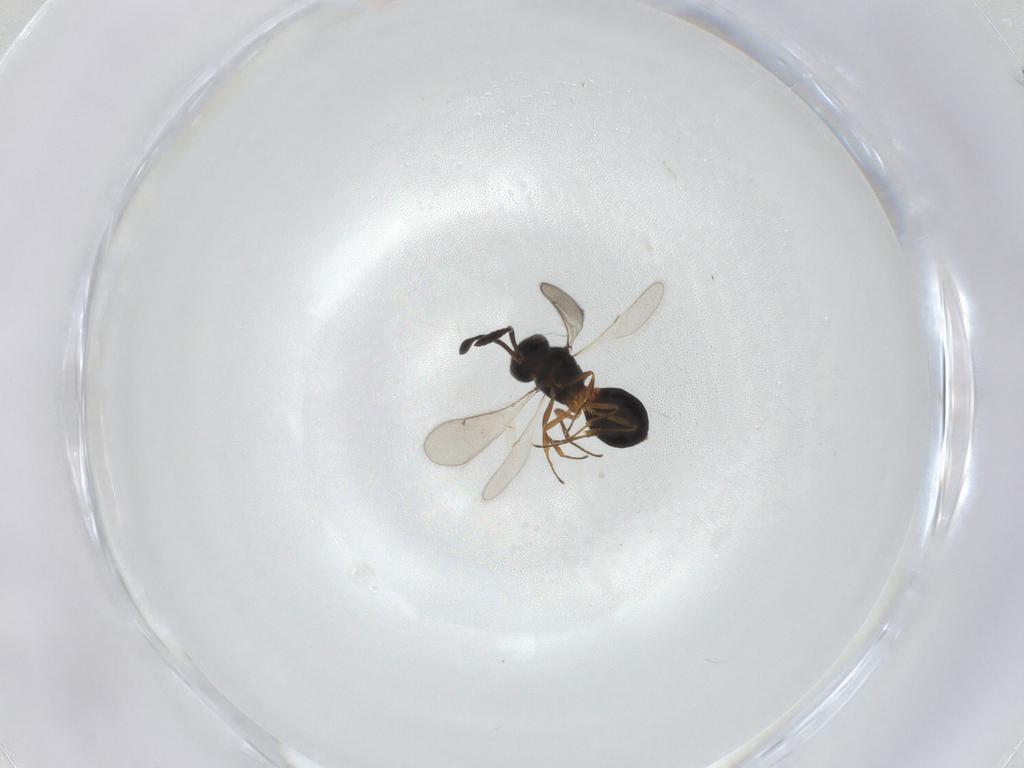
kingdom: Animalia
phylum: Arthropoda
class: Insecta
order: Hymenoptera
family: Scelionidae
